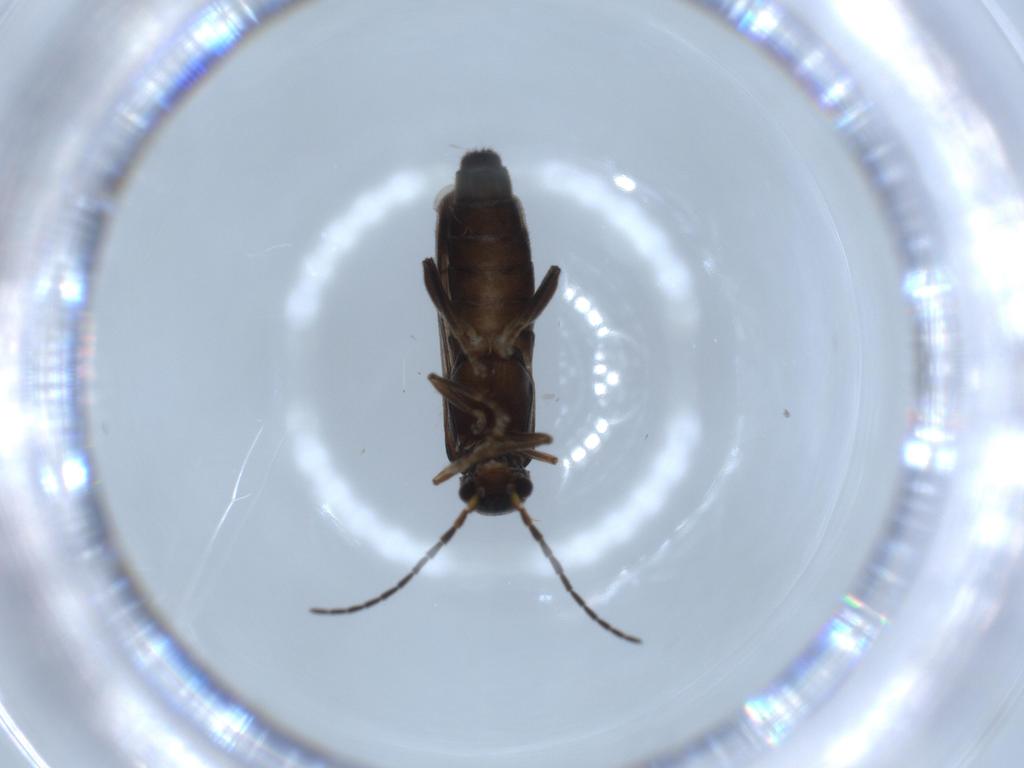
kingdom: Animalia
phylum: Arthropoda
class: Insecta
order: Coleoptera
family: Cantharidae
